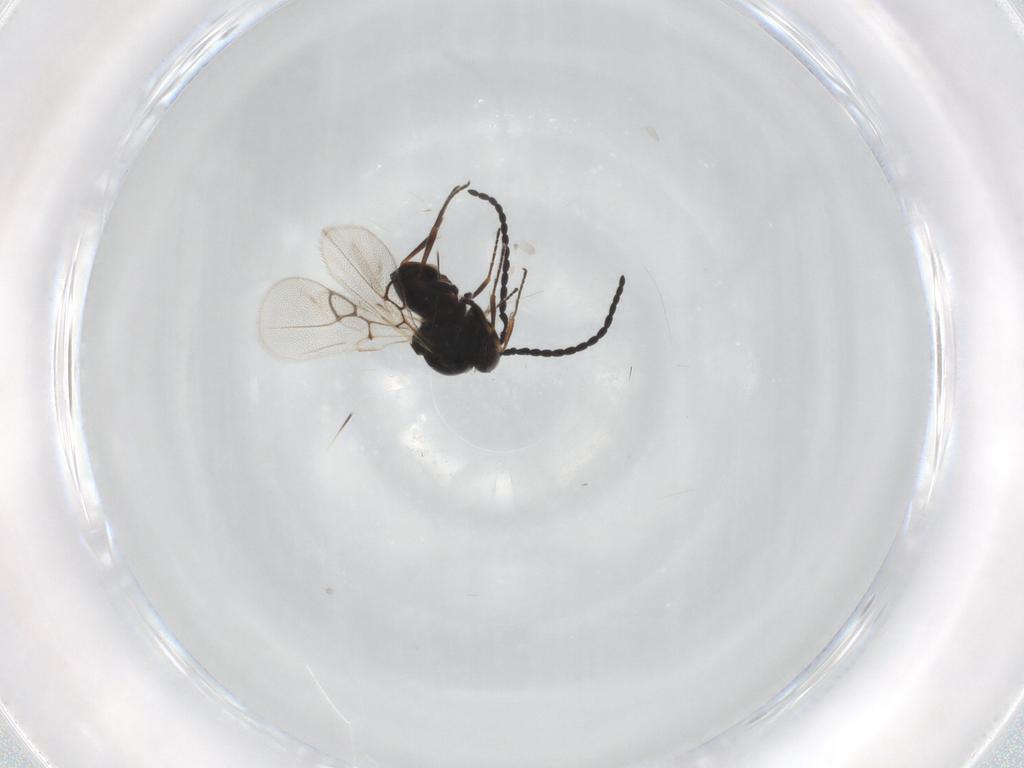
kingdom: Animalia
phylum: Arthropoda
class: Insecta
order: Hymenoptera
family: Figitidae
